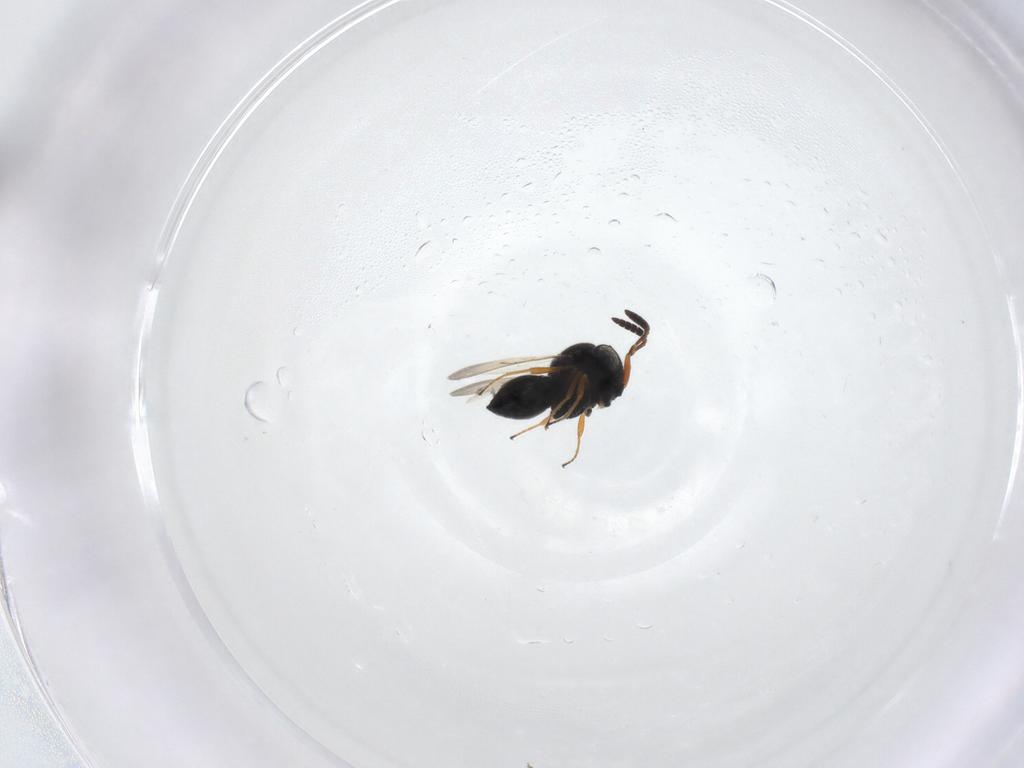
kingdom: Animalia
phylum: Arthropoda
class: Insecta
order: Hymenoptera
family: Scelionidae
